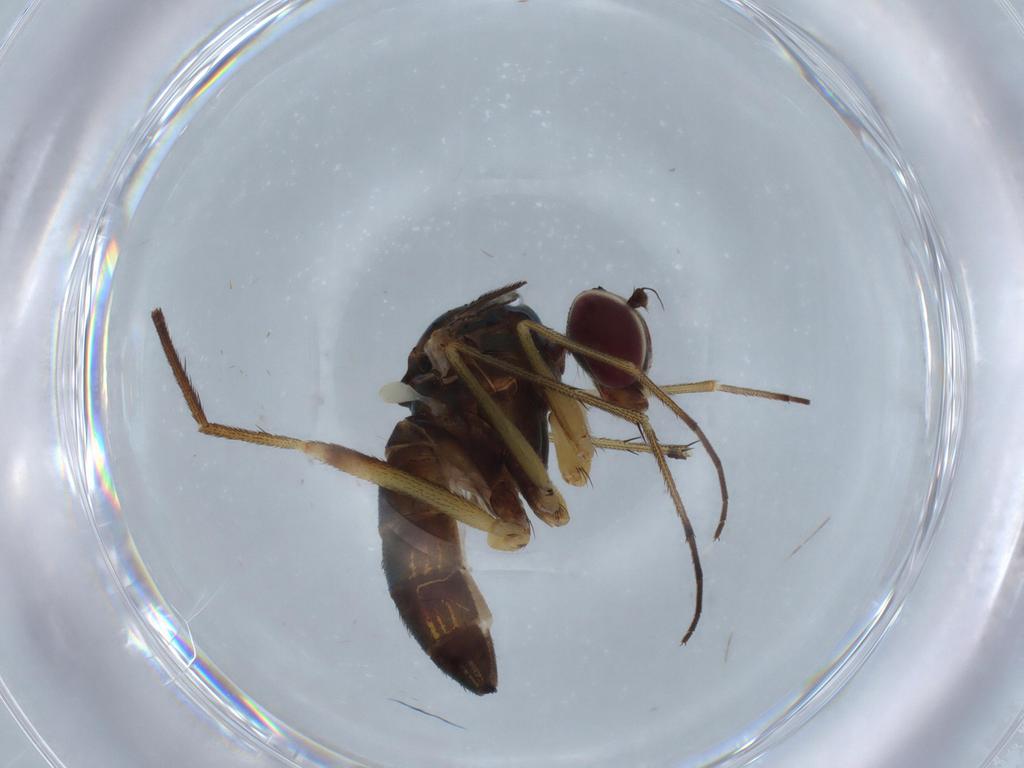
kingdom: Animalia
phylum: Arthropoda
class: Insecta
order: Diptera
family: Dolichopodidae
